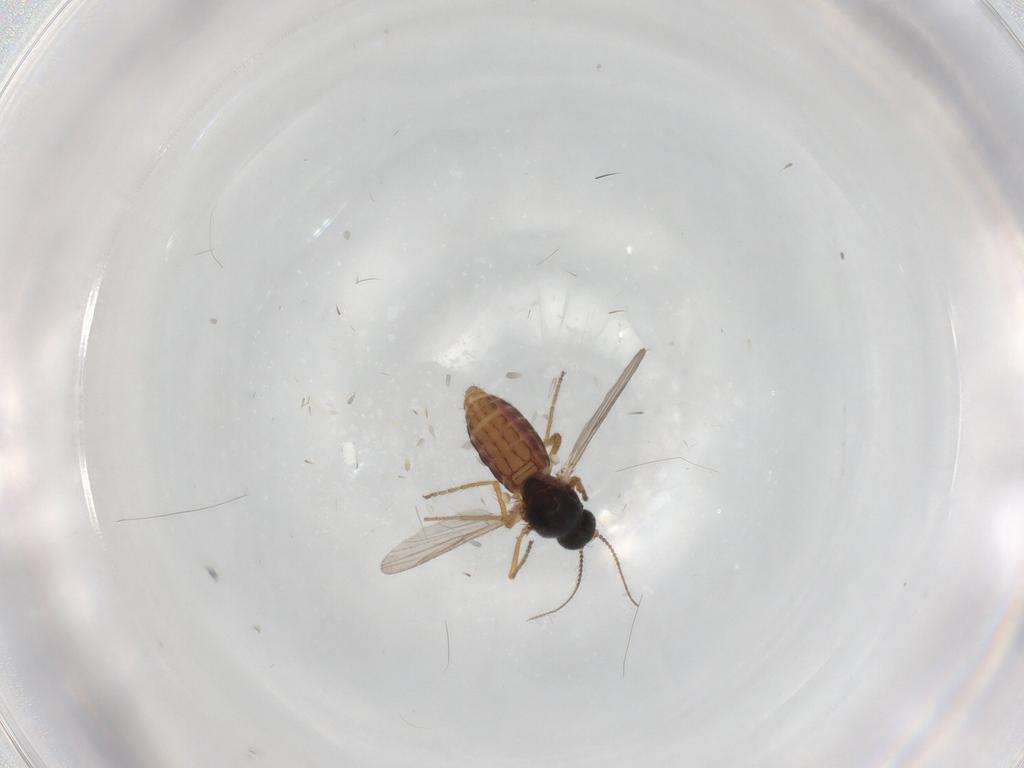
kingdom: Animalia
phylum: Arthropoda
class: Insecta
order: Diptera
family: Ceratopogonidae
